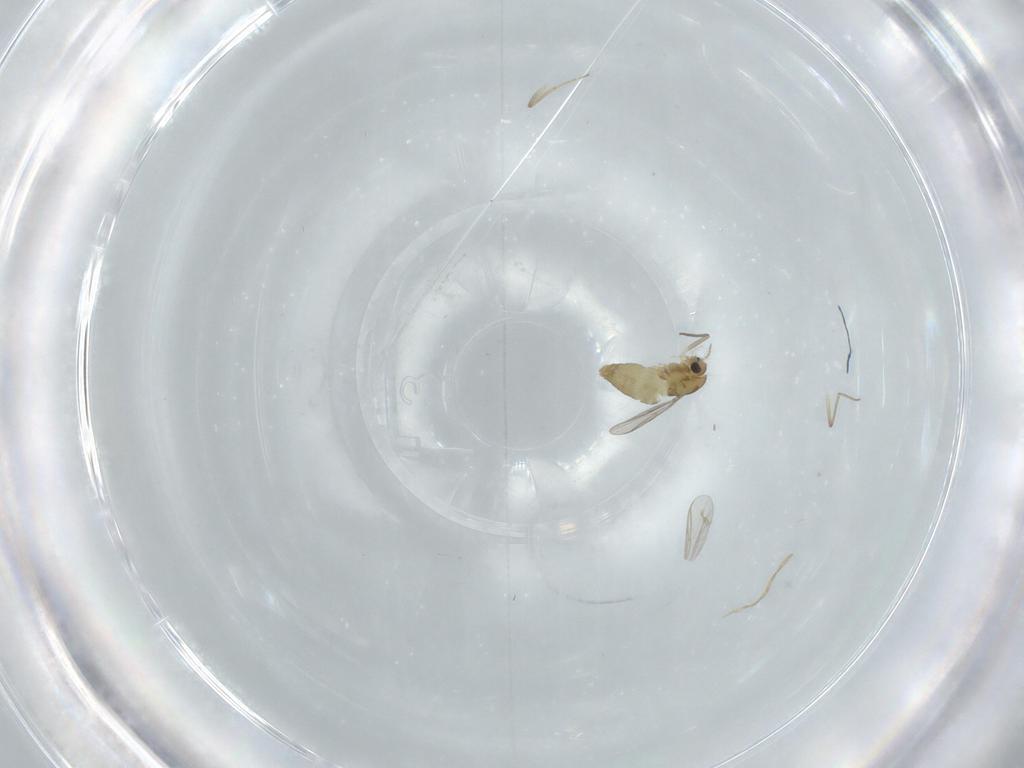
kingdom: Animalia
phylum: Arthropoda
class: Insecta
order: Diptera
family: Chironomidae
